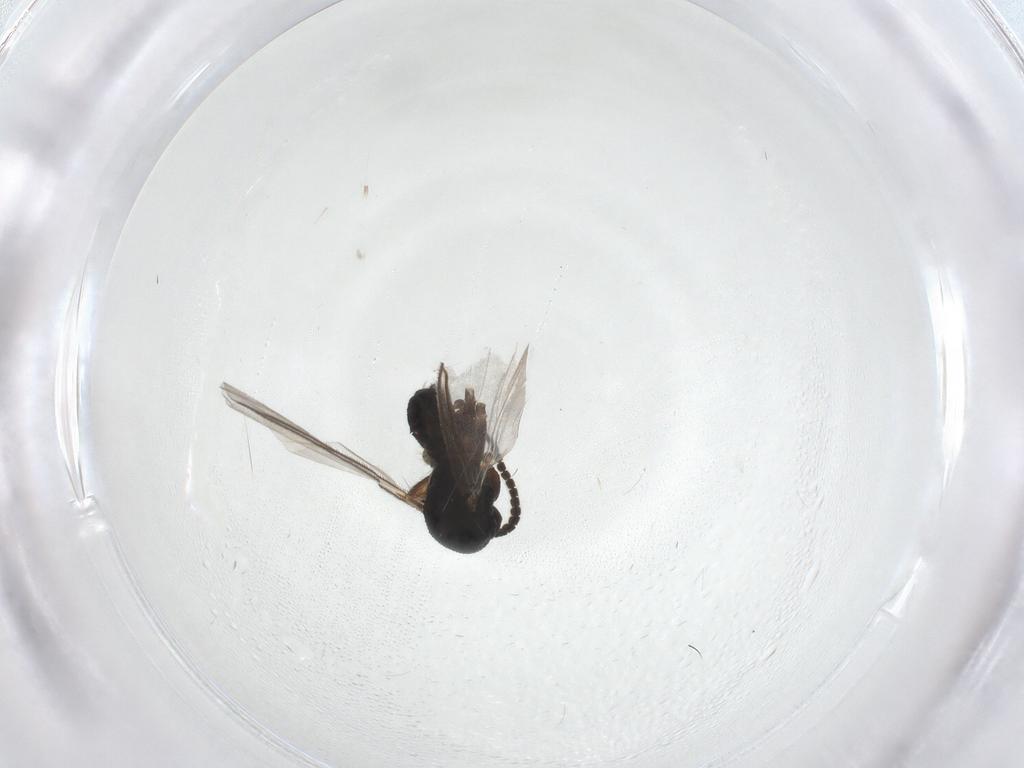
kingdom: Animalia
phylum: Arthropoda
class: Insecta
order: Diptera
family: Mycetophilidae
